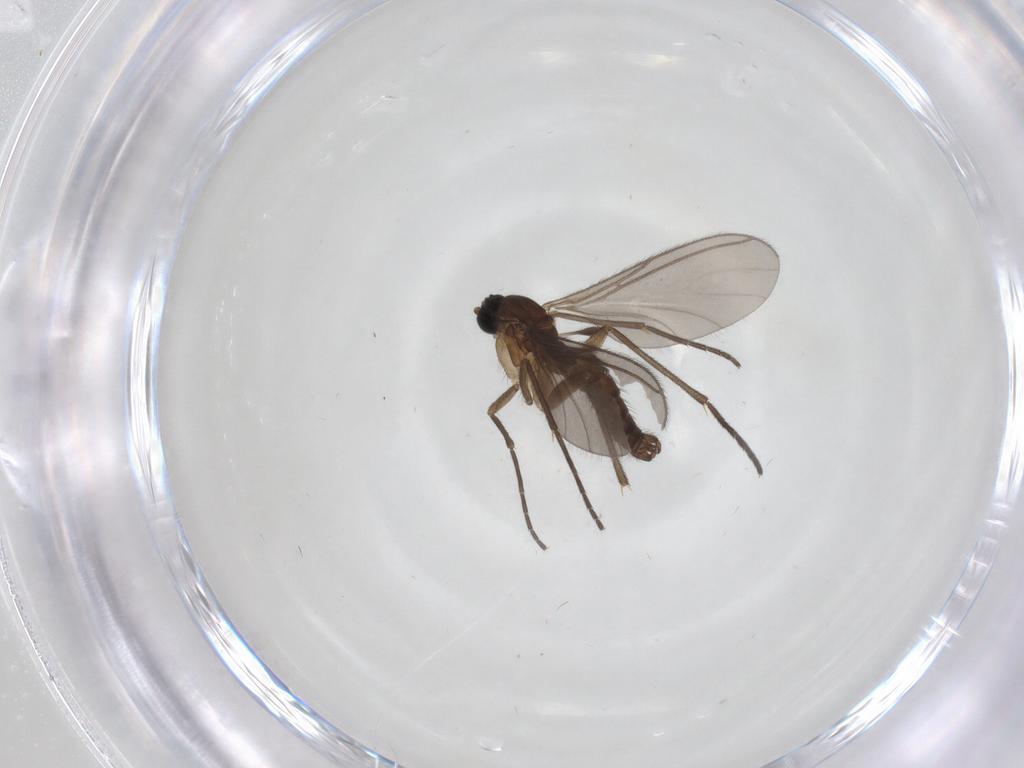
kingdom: Animalia
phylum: Arthropoda
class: Insecta
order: Diptera
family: Sciaridae
